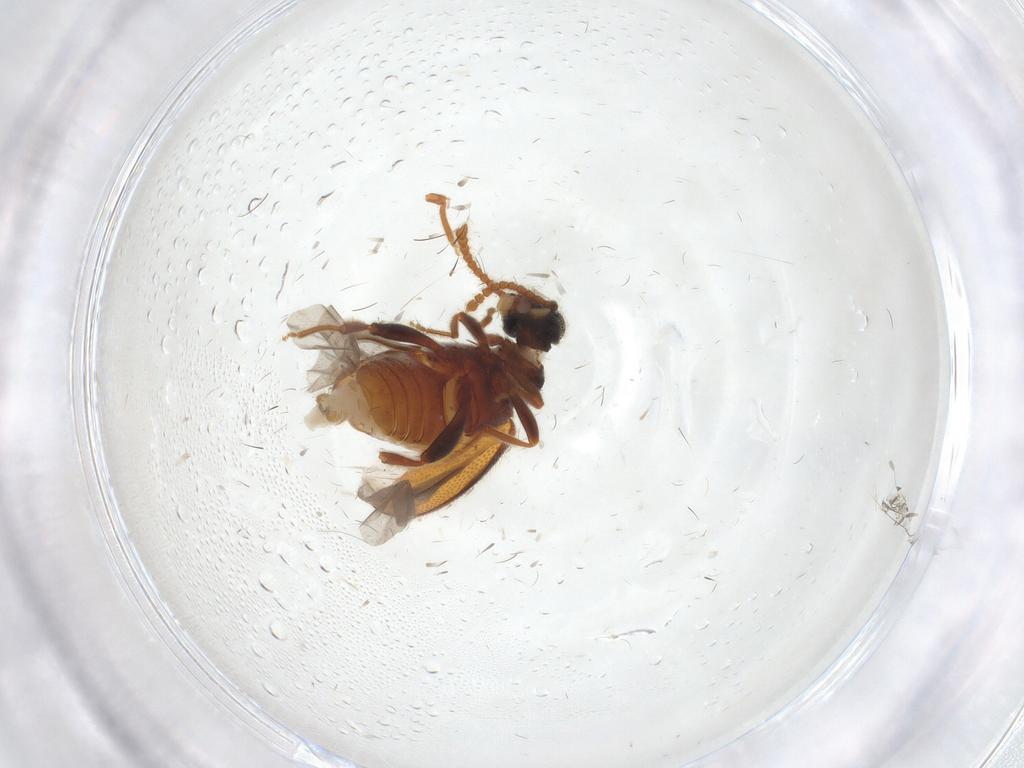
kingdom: Animalia
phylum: Arthropoda
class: Insecta
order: Coleoptera
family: Aderidae
